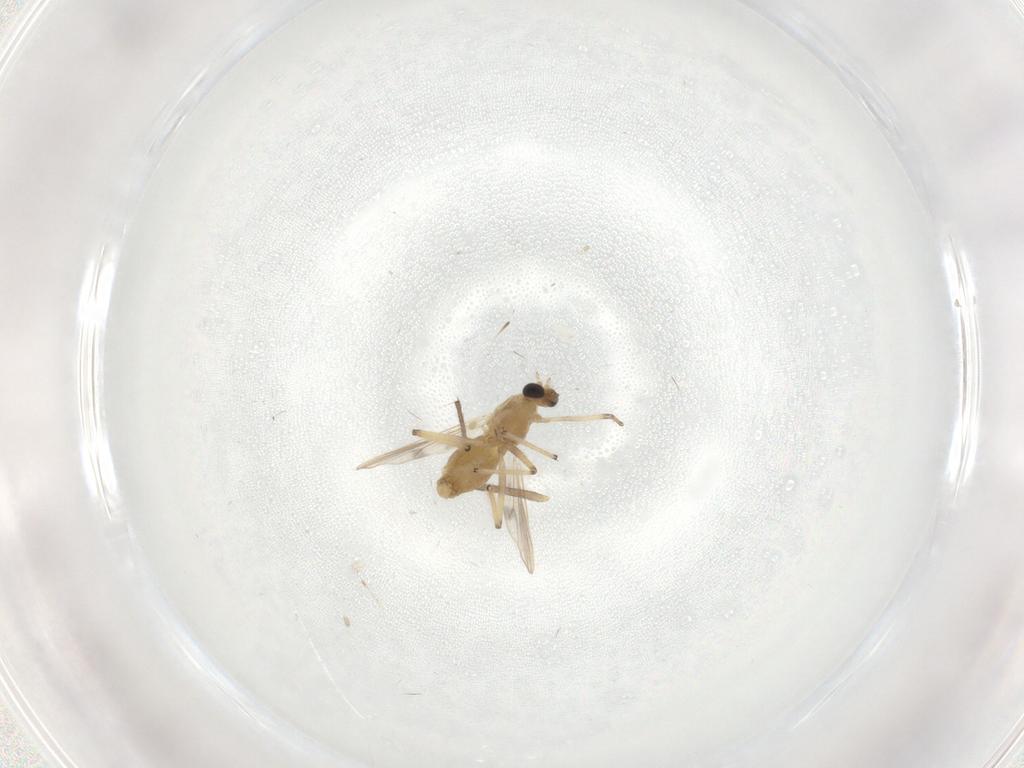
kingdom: Animalia
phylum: Arthropoda
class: Insecta
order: Diptera
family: Chironomidae
